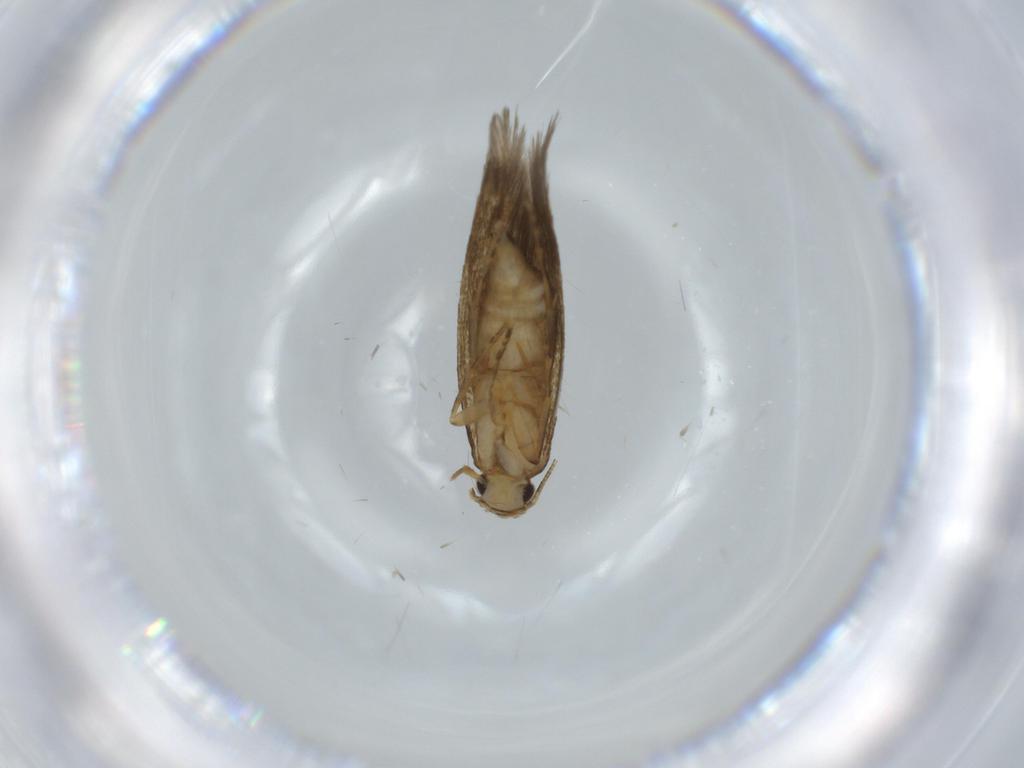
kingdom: Animalia
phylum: Arthropoda
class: Insecta
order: Lepidoptera
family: Tineidae
